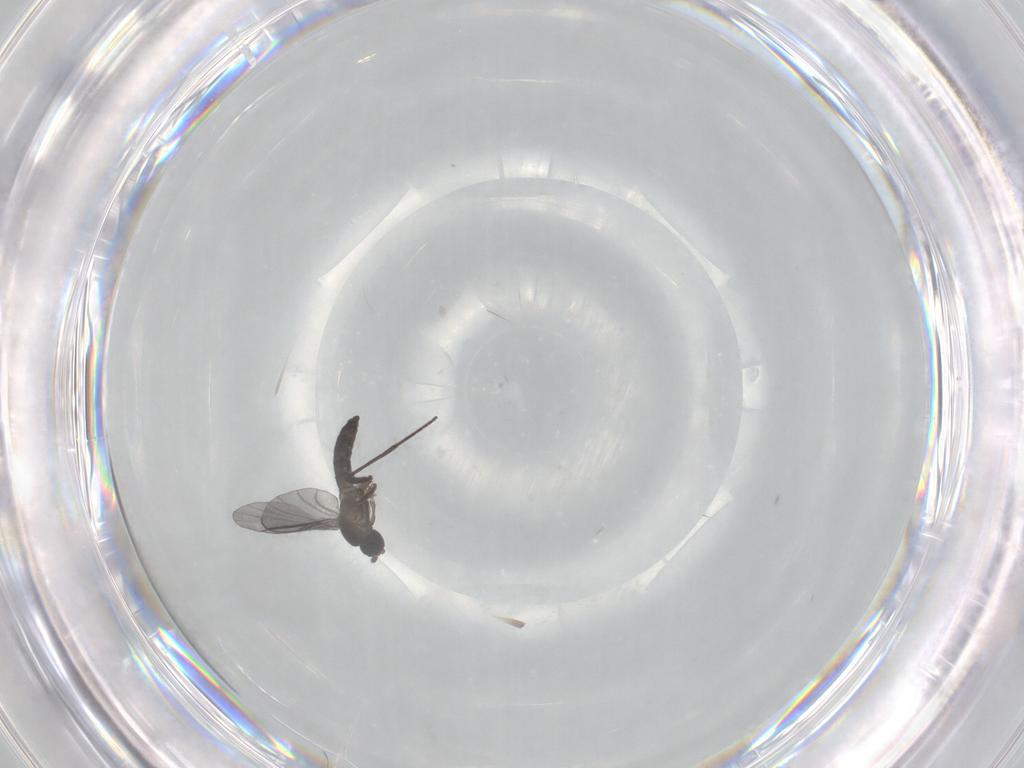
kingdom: Animalia
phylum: Arthropoda
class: Insecta
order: Diptera
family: Sciaridae
